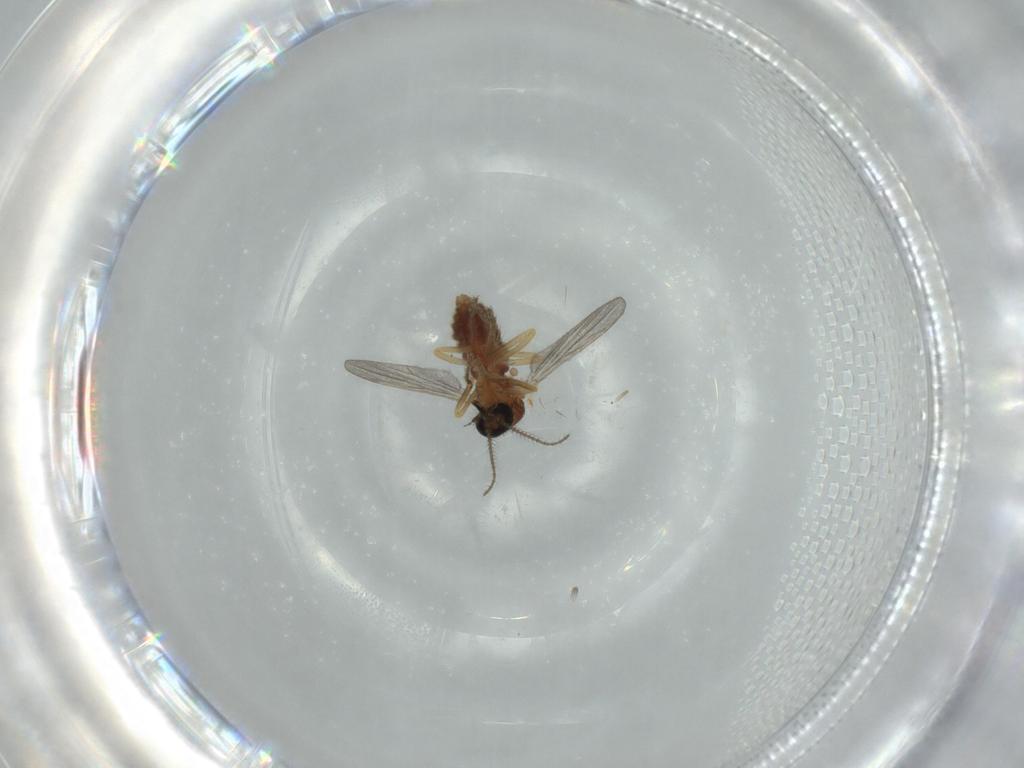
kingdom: Animalia
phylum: Arthropoda
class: Insecta
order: Diptera
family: Ceratopogonidae
